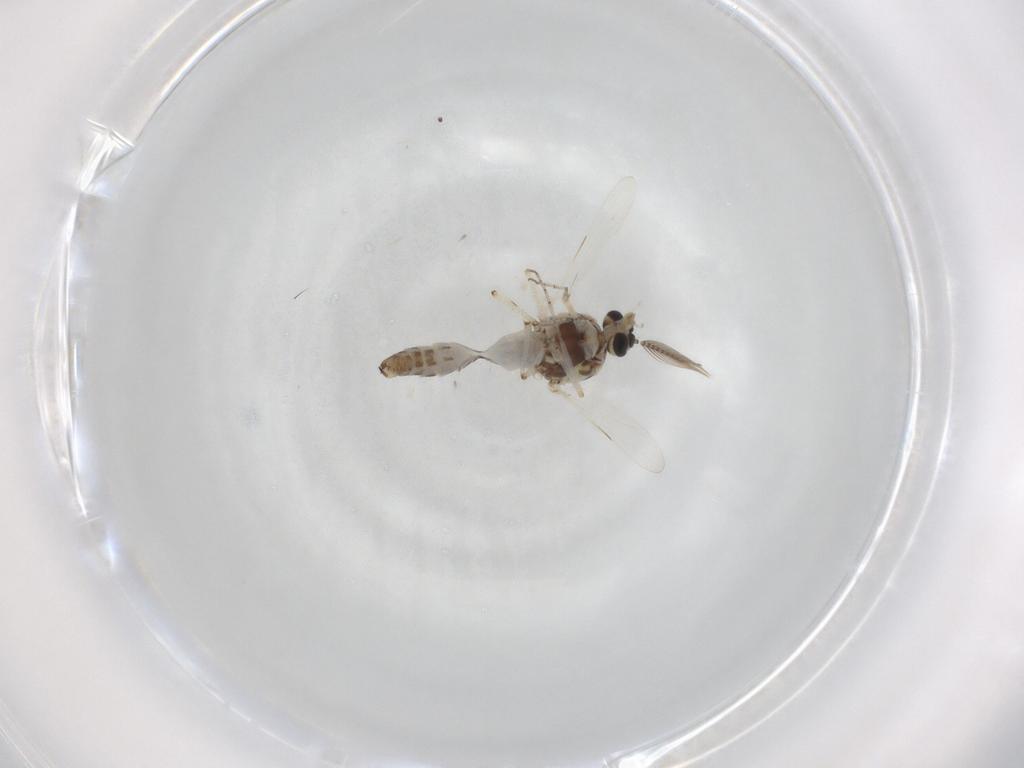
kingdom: Animalia
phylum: Arthropoda
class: Insecta
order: Diptera
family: Ceratopogonidae
